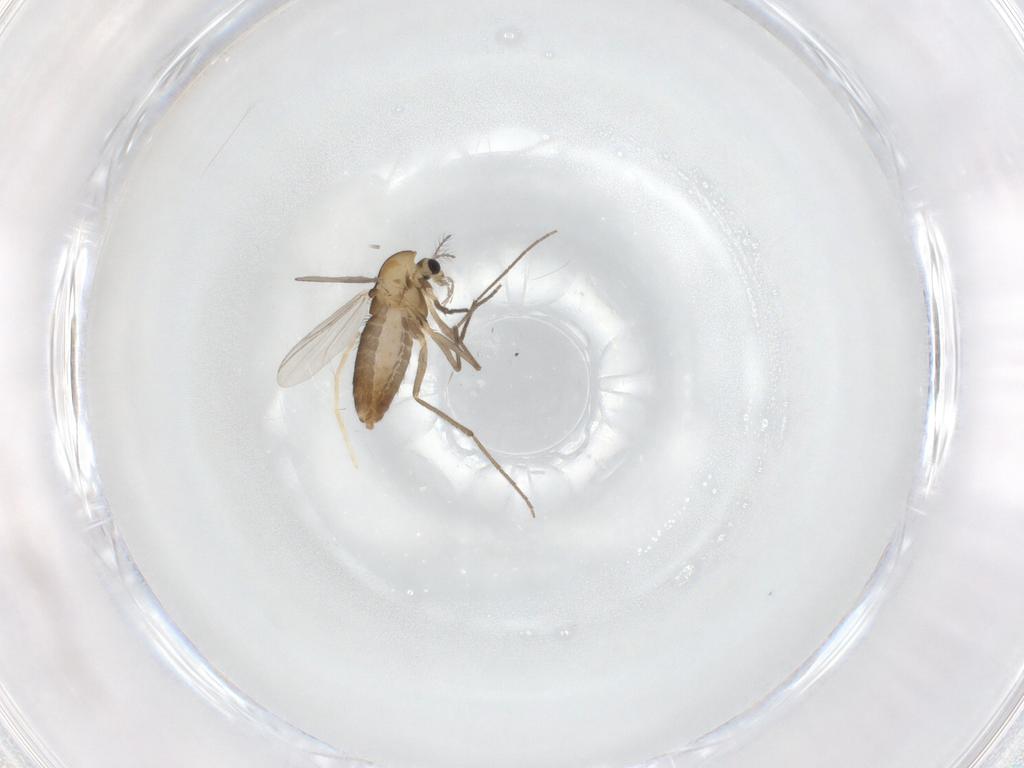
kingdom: Animalia
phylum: Arthropoda
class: Insecta
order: Diptera
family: Chironomidae
